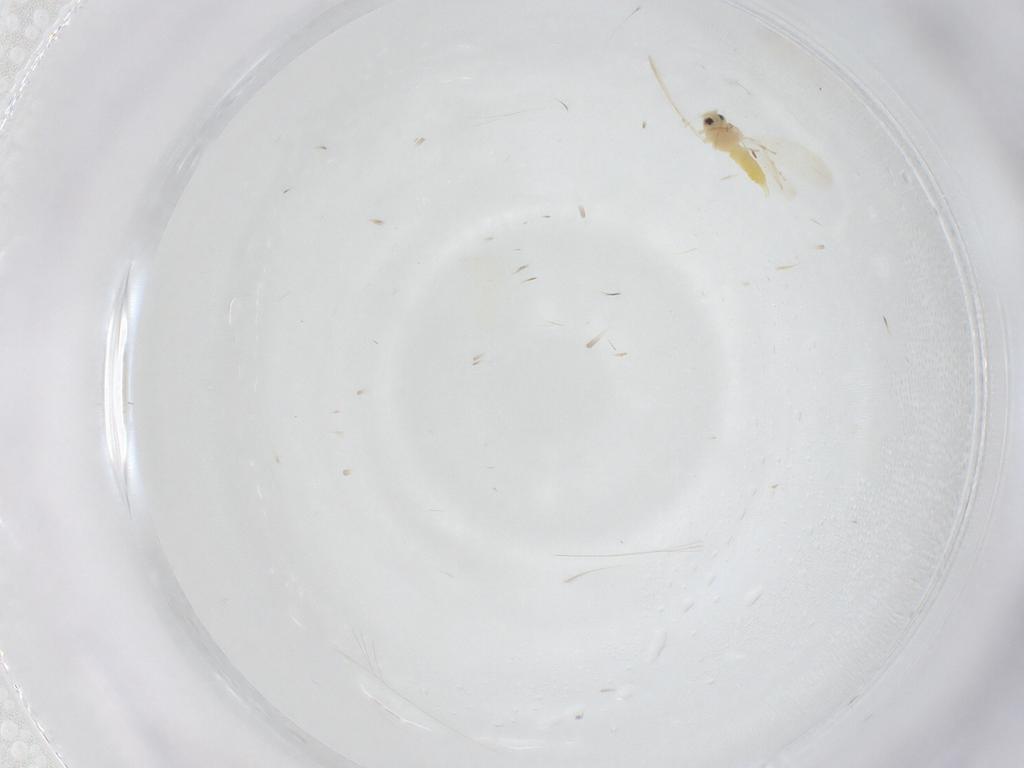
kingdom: Animalia
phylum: Arthropoda
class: Insecta
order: Hemiptera
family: Aleyrodidae
